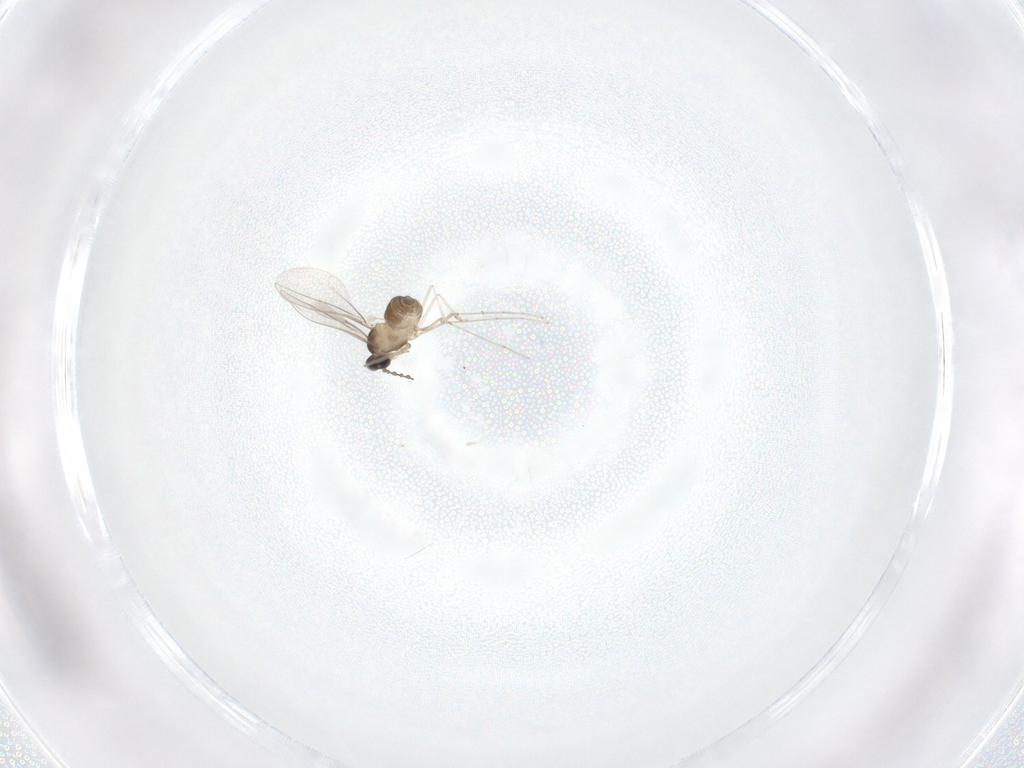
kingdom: Animalia
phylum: Arthropoda
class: Insecta
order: Diptera
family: Cecidomyiidae
